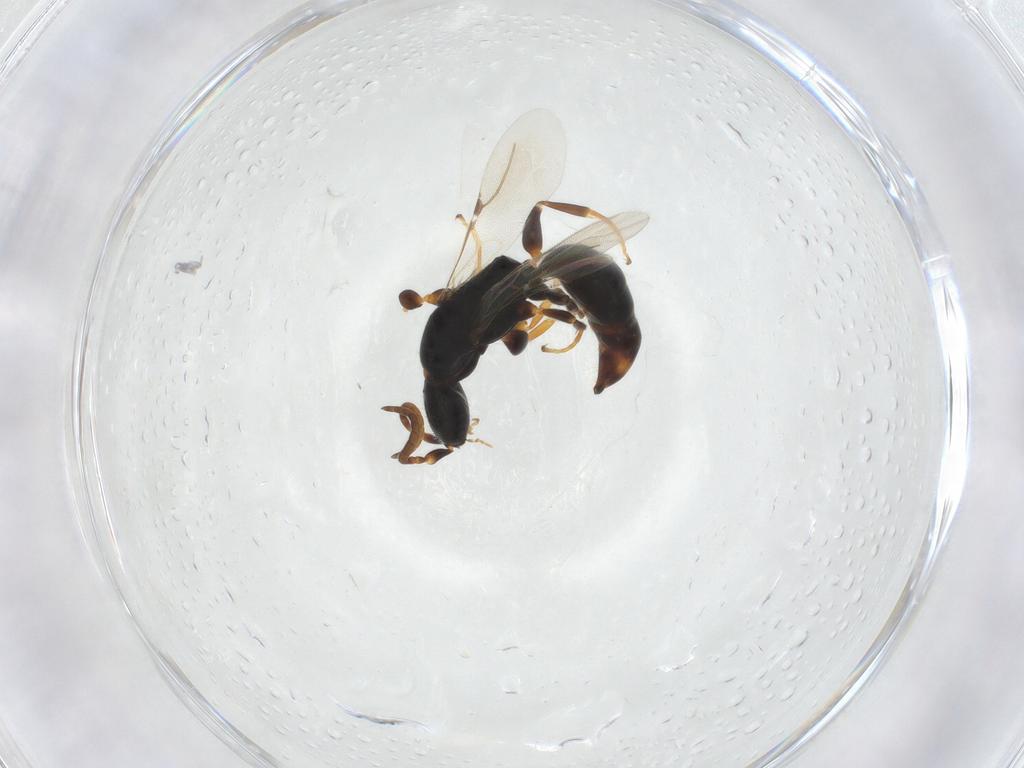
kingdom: Animalia
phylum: Arthropoda
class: Insecta
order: Hymenoptera
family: Bethylidae
